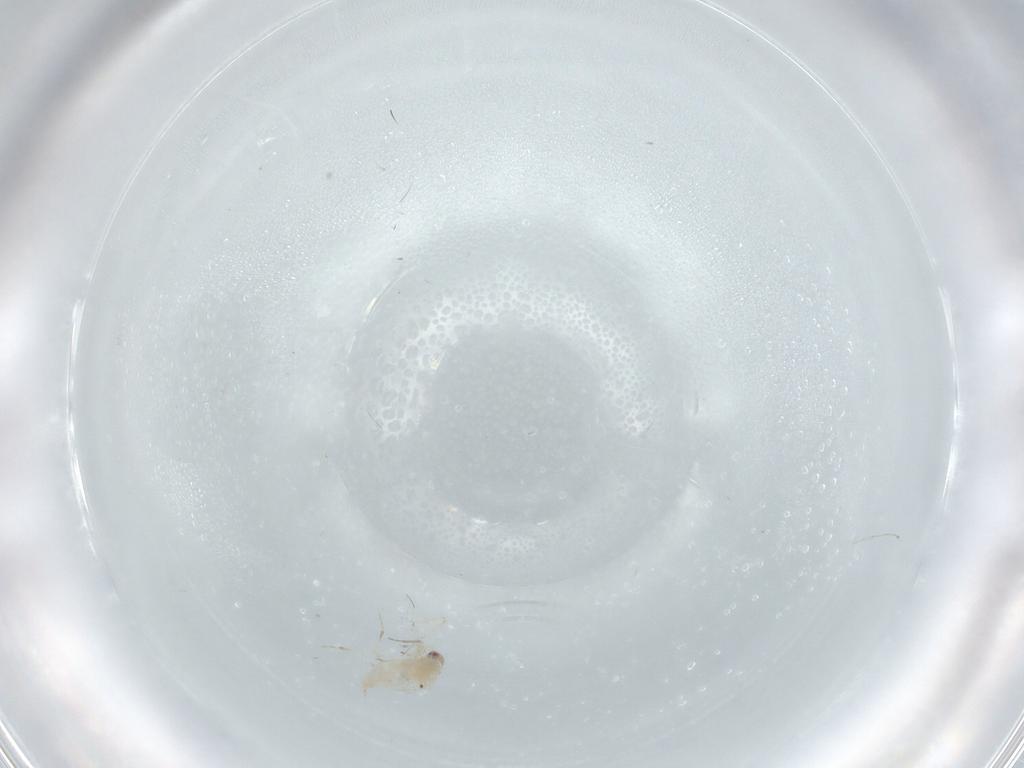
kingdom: Animalia
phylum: Arthropoda
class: Insecta
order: Hemiptera
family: Aleyrodidae
